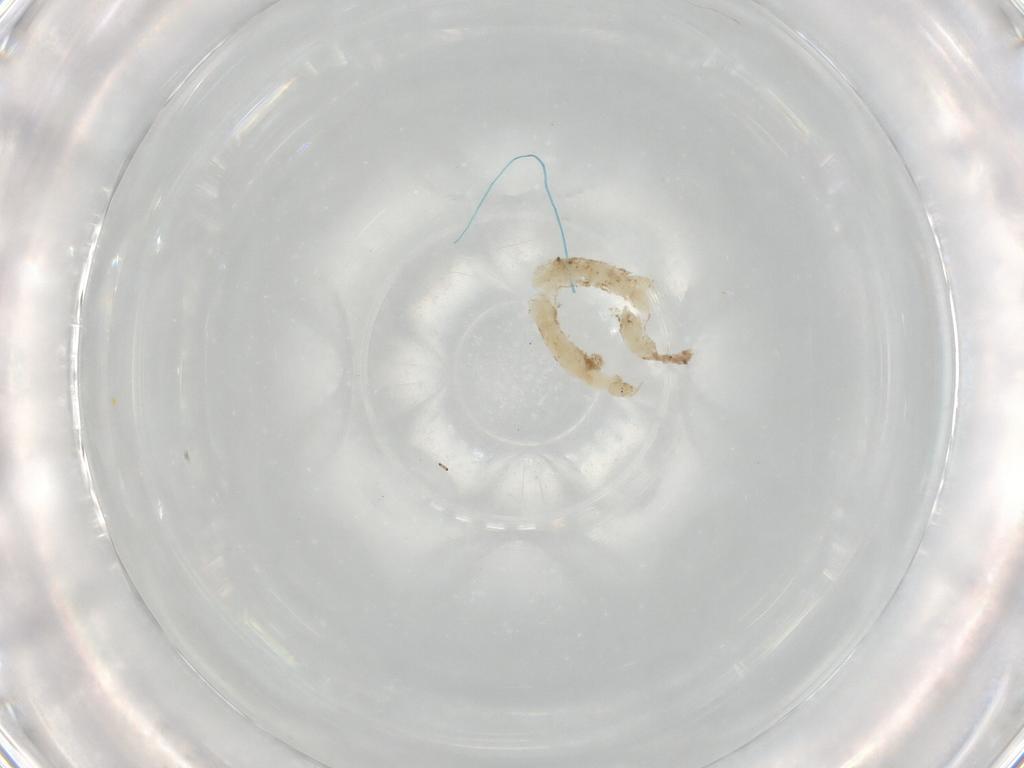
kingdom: Animalia
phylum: Arthropoda
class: Insecta
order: Diptera
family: Chironomidae
